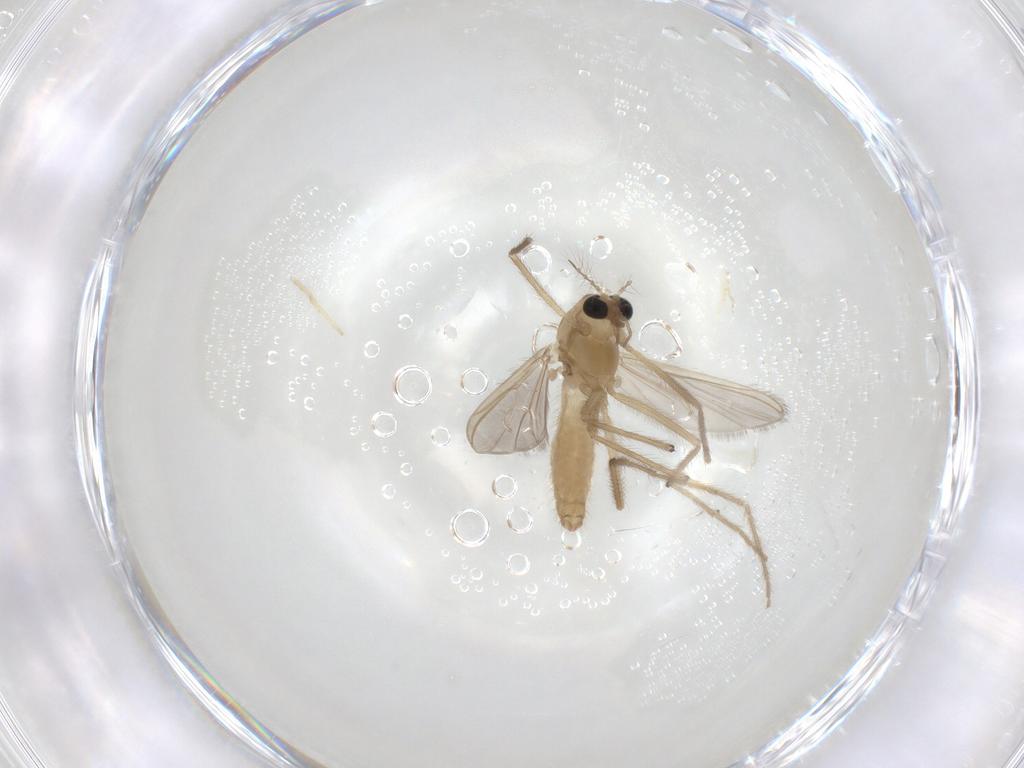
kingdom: Animalia
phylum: Arthropoda
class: Insecta
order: Diptera
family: Chironomidae
